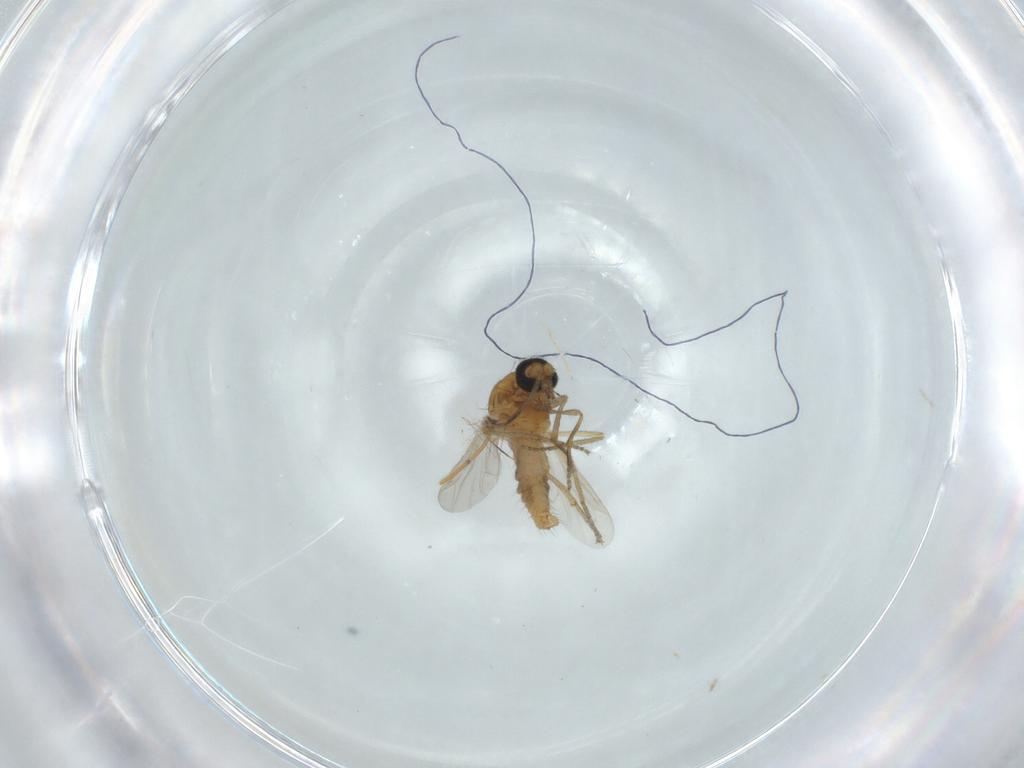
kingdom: Animalia
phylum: Arthropoda
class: Insecta
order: Diptera
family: Ceratopogonidae
